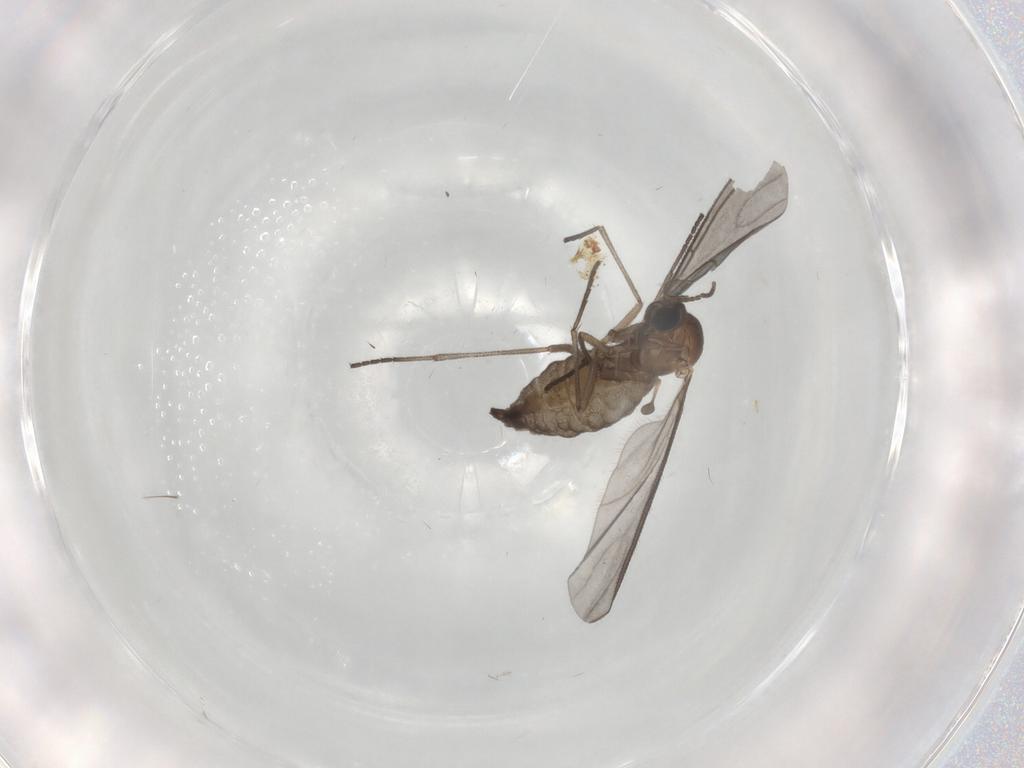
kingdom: Animalia
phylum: Arthropoda
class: Insecta
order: Diptera
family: Sciaridae
